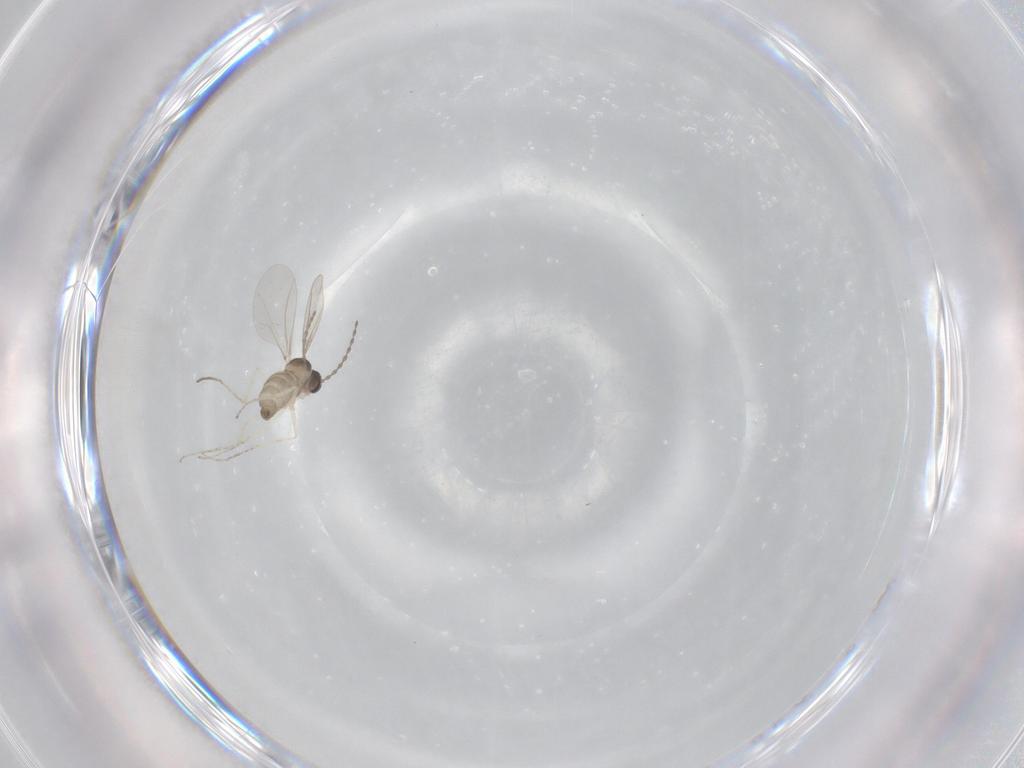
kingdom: Animalia
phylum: Arthropoda
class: Insecta
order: Diptera
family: Cecidomyiidae
